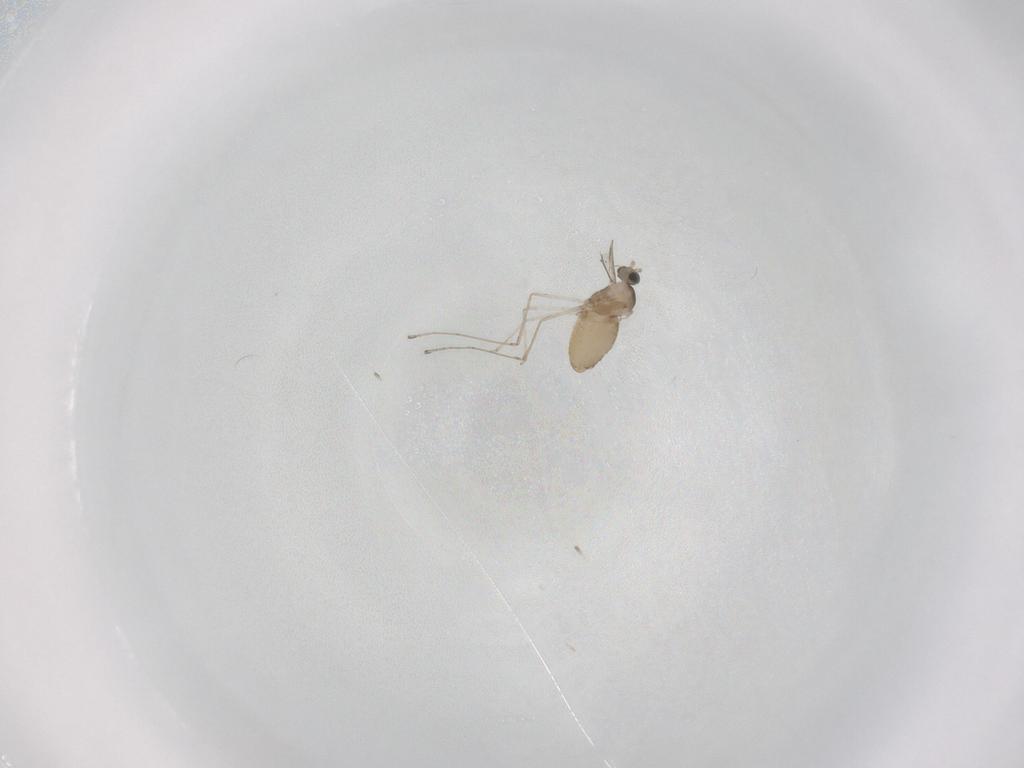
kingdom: Animalia
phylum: Arthropoda
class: Insecta
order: Diptera
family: Cecidomyiidae
